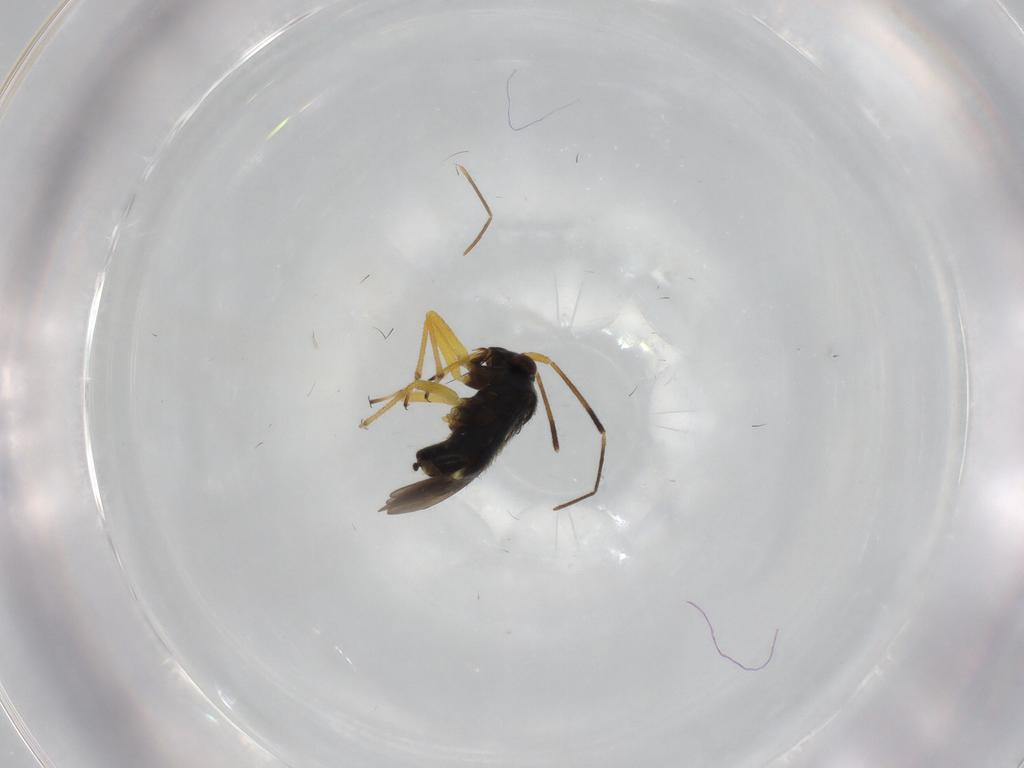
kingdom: Animalia
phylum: Arthropoda
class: Insecta
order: Hemiptera
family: Miridae
